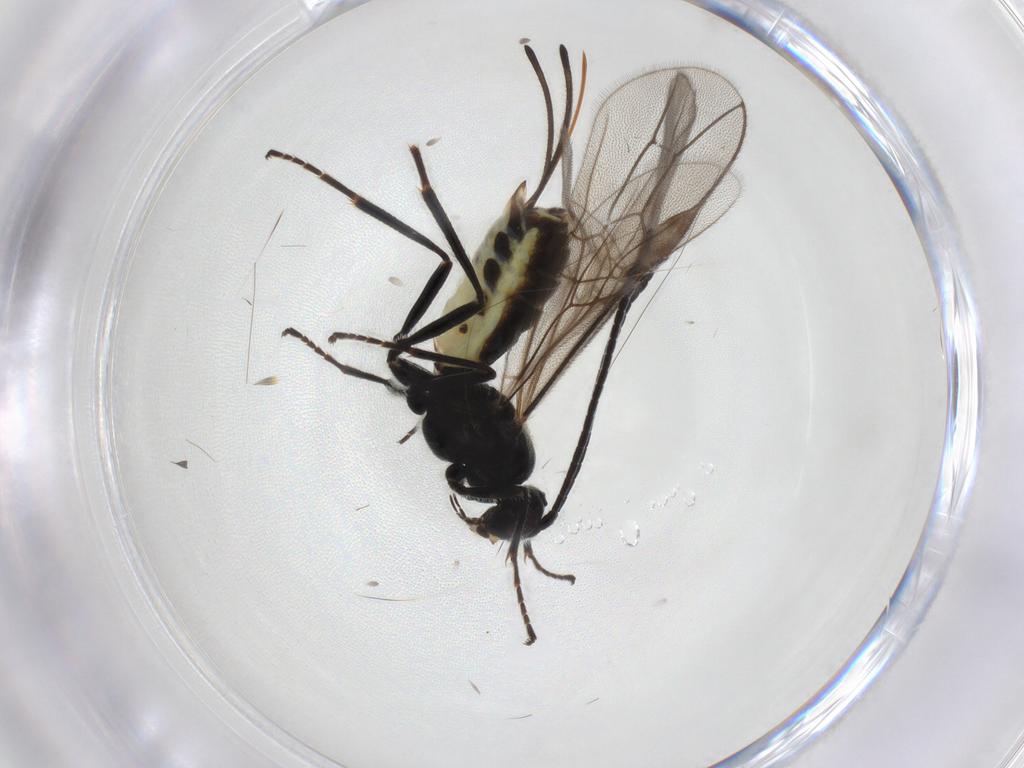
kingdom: Animalia
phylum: Arthropoda
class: Insecta
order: Hymenoptera
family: Braconidae
